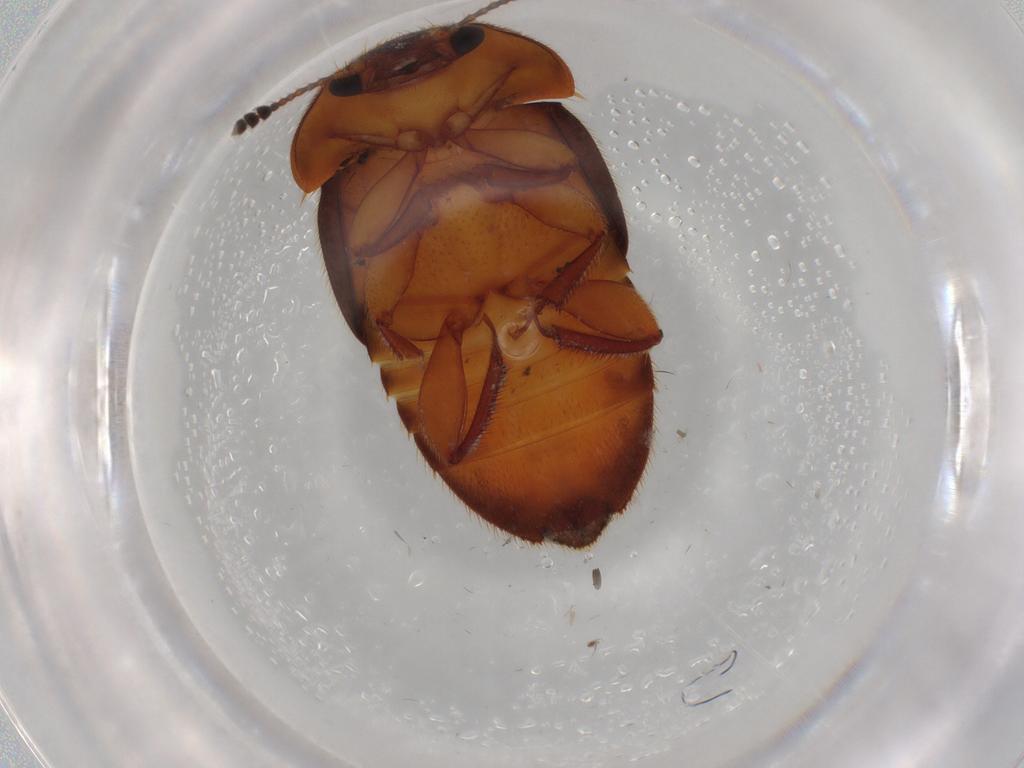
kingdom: Animalia
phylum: Arthropoda
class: Insecta
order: Coleoptera
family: Nitidulidae
